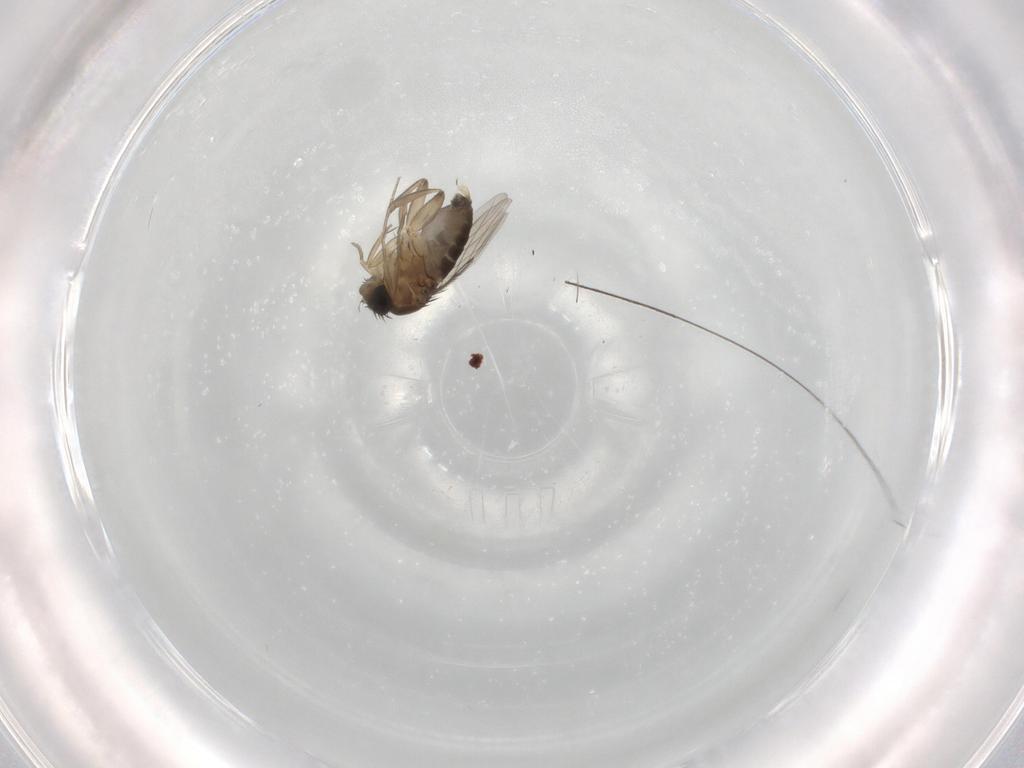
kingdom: Animalia
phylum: Arthropoda
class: Insecta
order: Diptera
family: Phoridae
